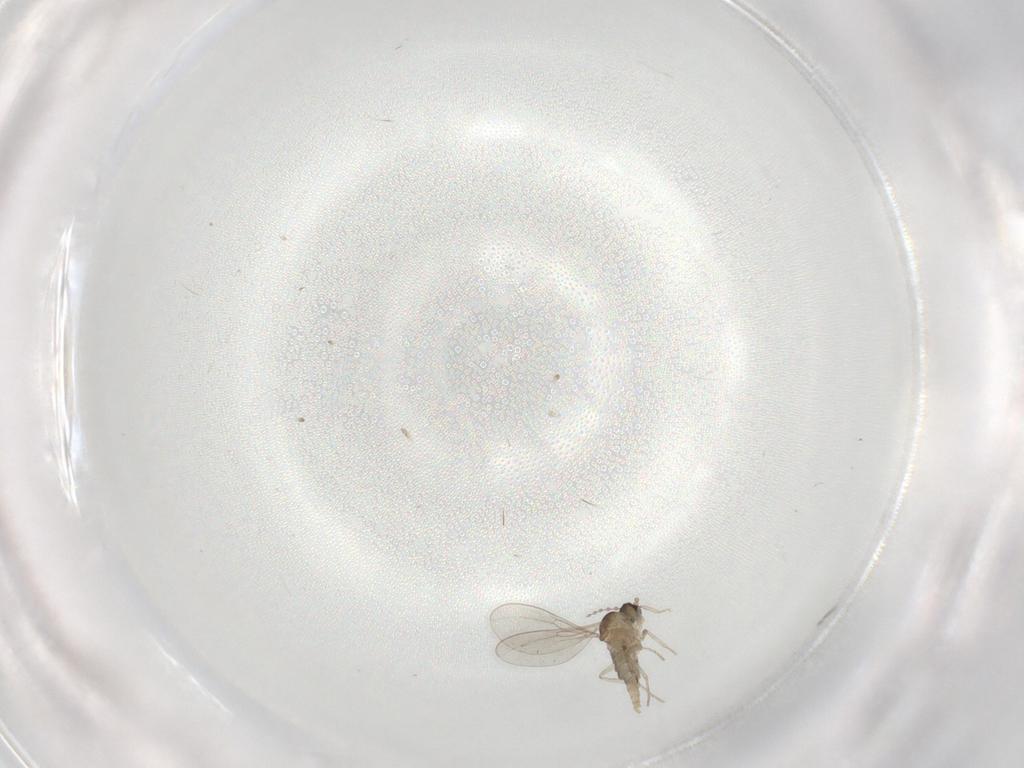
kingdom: Animalia
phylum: Arthropoda
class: Insecta
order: Diptera
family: Cecidomyiidae
